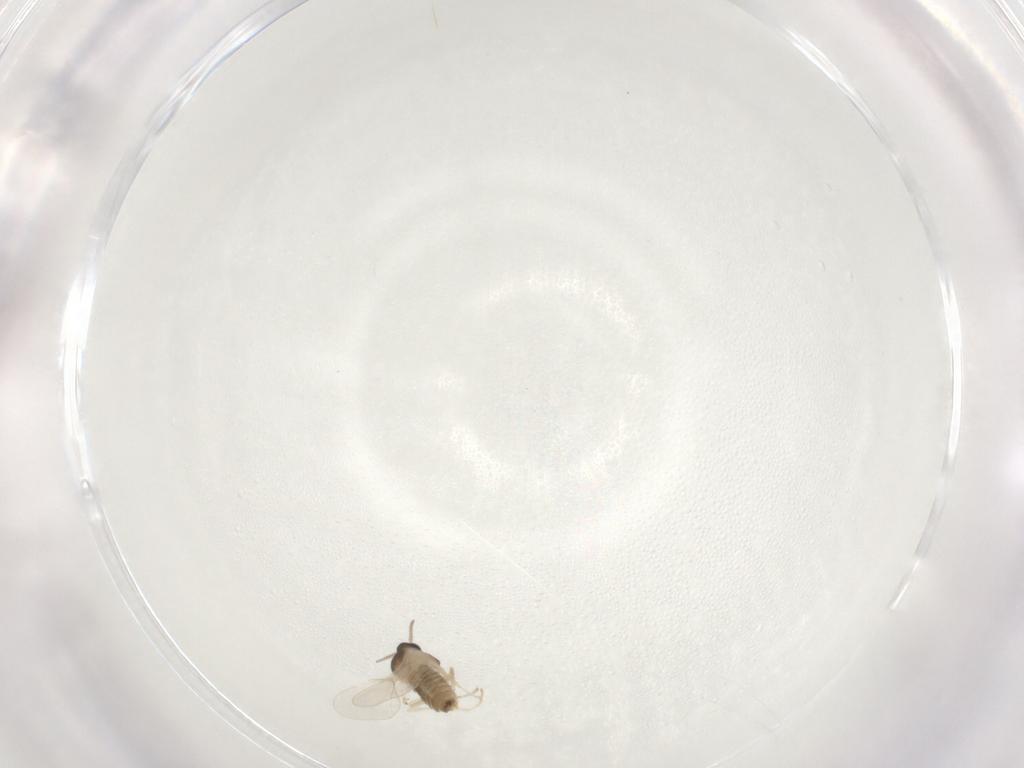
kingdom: Animalia
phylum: Arthropoda
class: Insecta
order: Diptera
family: Cecidomyiidae
